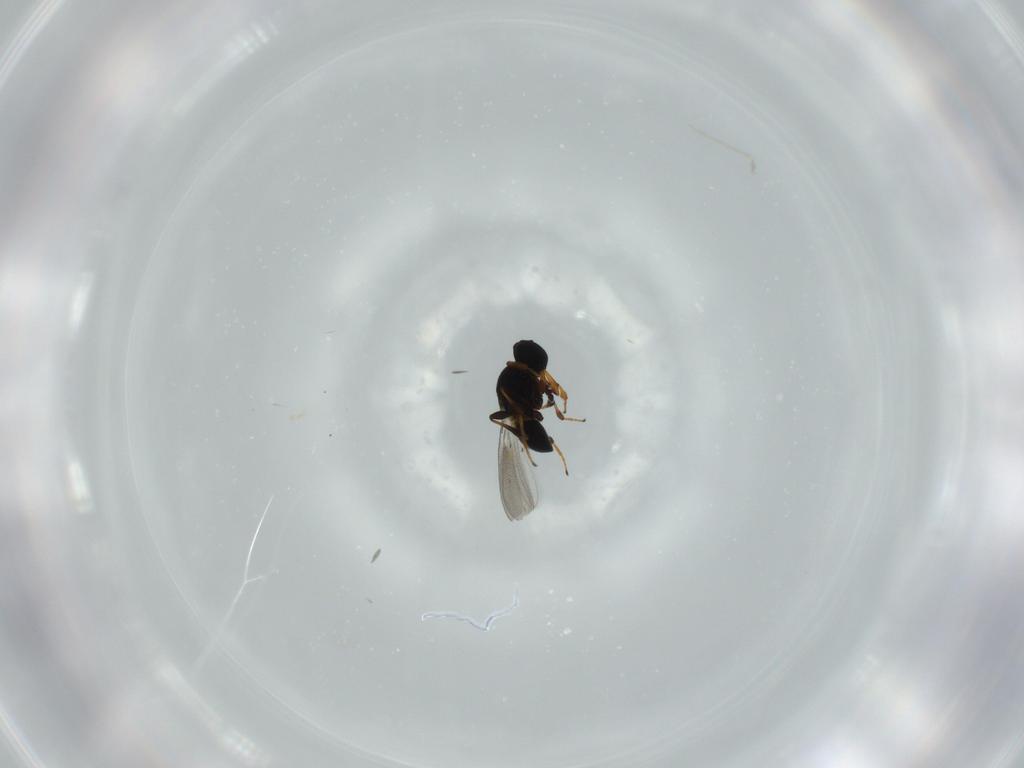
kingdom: Animalia
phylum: Arthropoda
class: Insecta
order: Hymenoptera
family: Platygastridae
